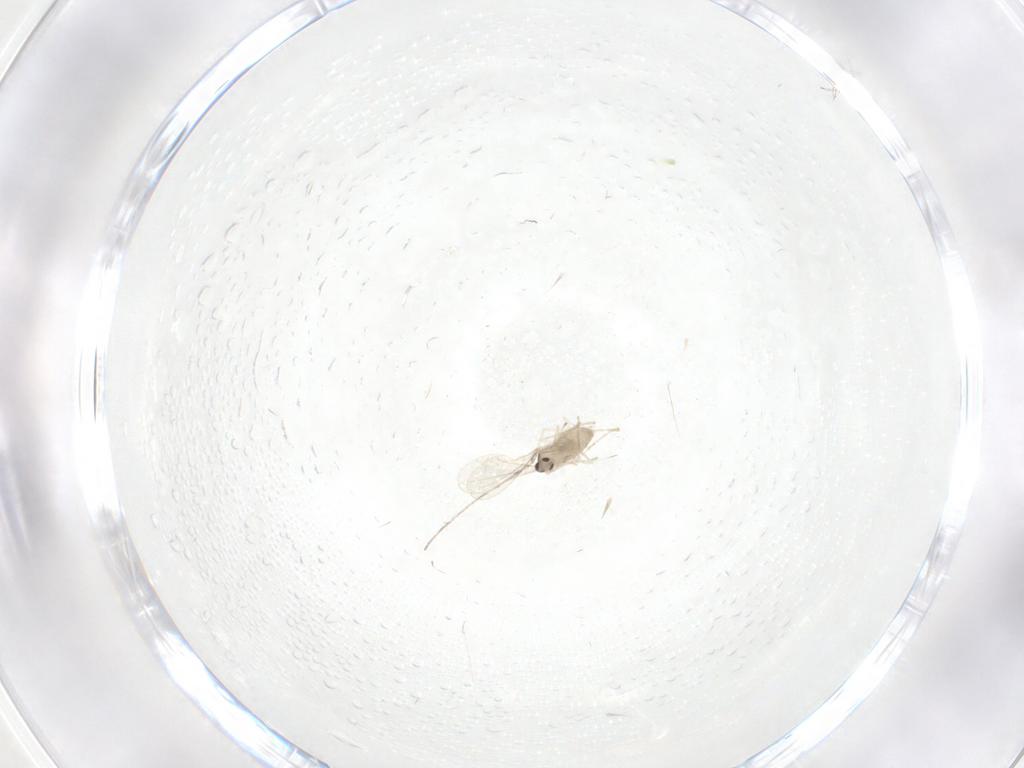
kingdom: Animalia
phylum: Arthropoda
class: Insecta
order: Diptera
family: Cecidomyiidae
